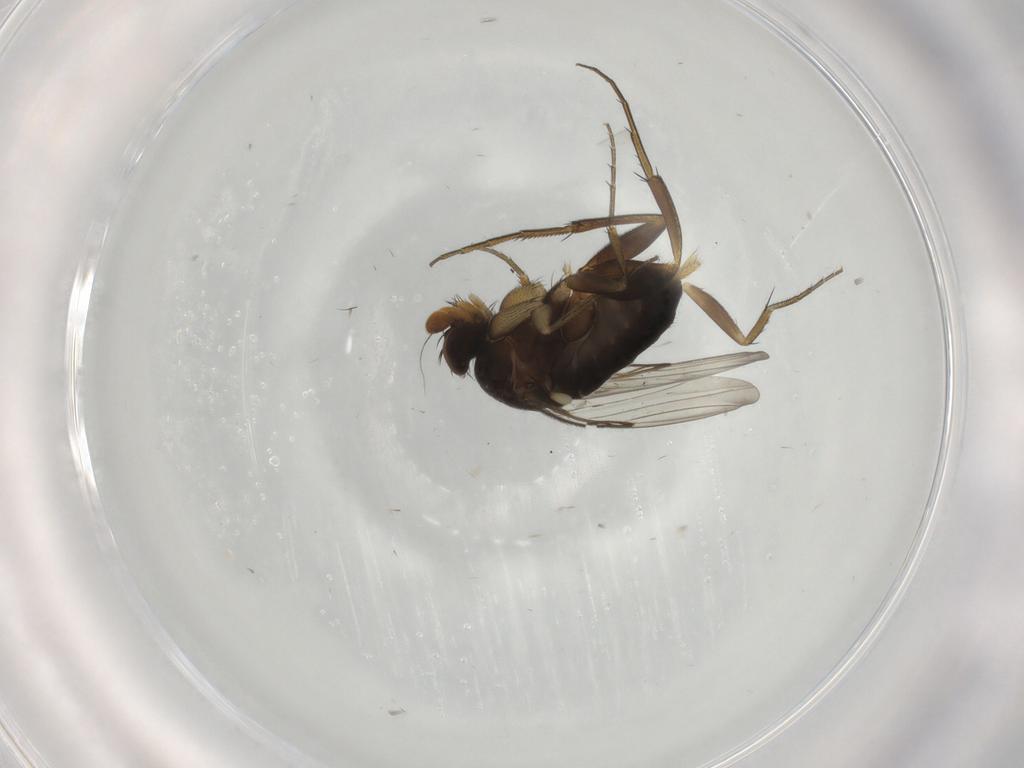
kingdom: Animalia
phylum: Arthropoda
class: Insecta
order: Diptera
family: Phoridae
